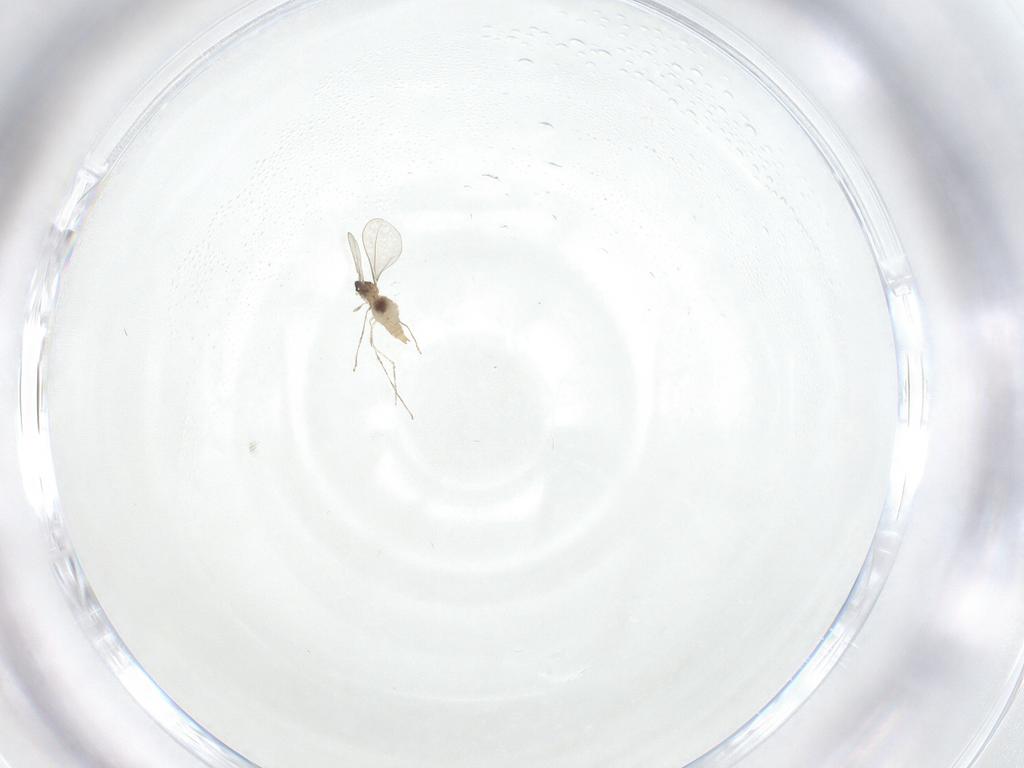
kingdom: Animalia
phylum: Arthropoda
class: Insecta
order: Diptera
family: Cecidomyiidae
